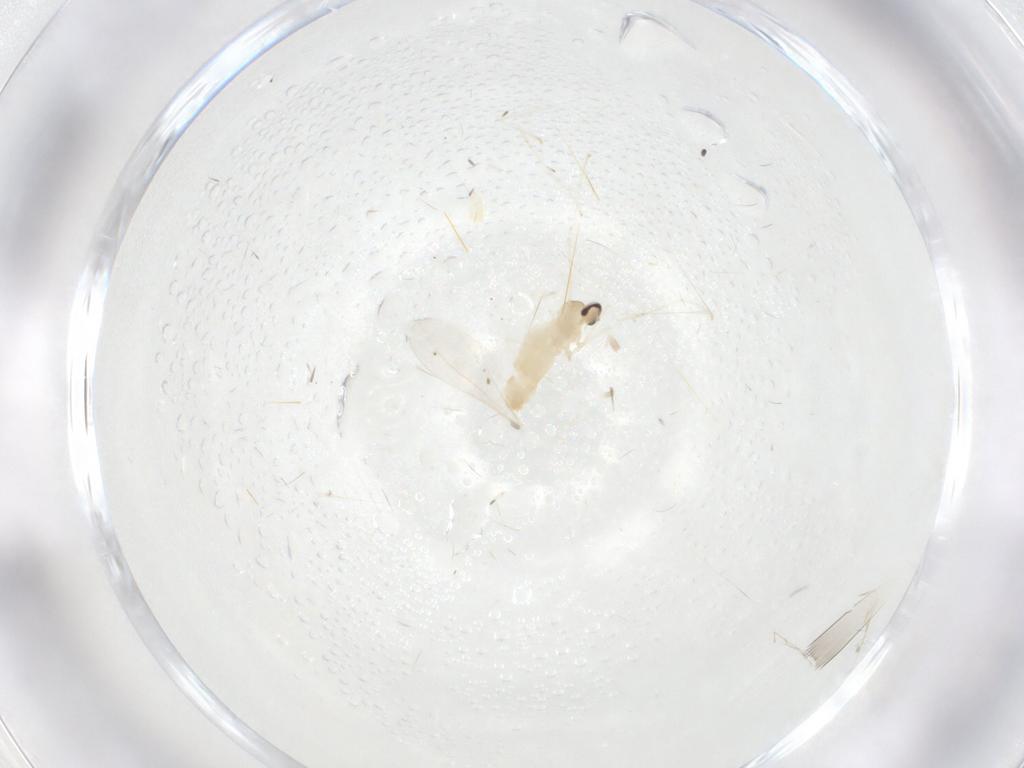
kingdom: Animalia
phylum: Arthropoda
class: Insecta
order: Diptera
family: Cecidomyiidae
